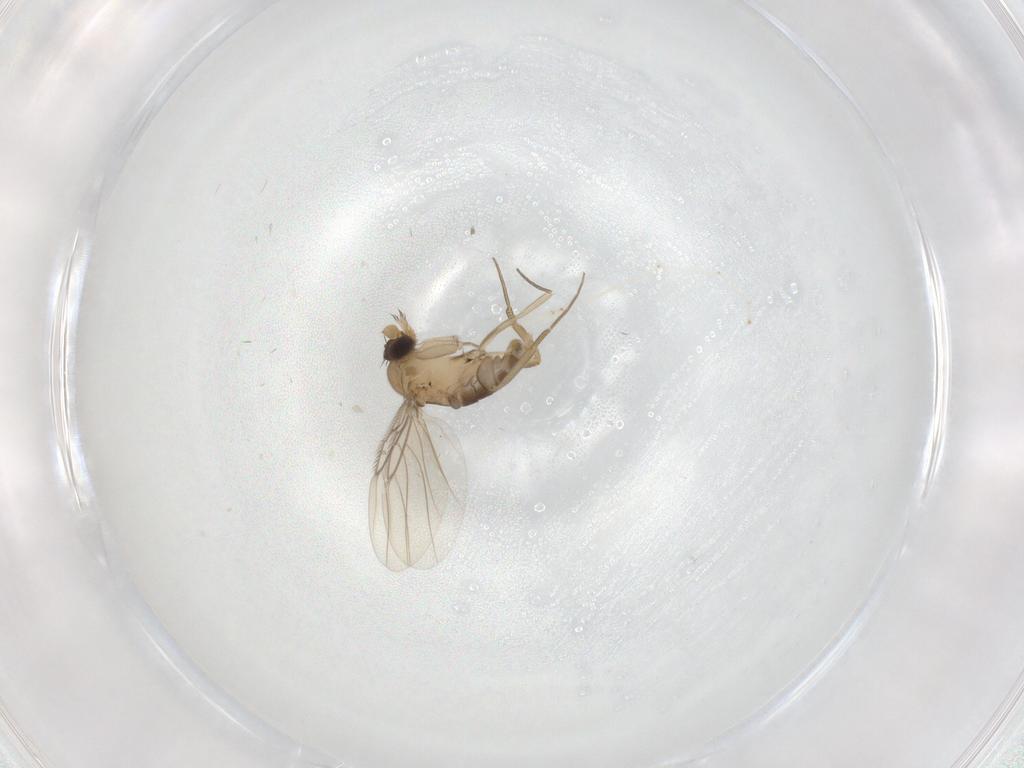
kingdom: Animalia
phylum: Arthropoda
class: Insecta
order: Diptera
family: Phoridae
